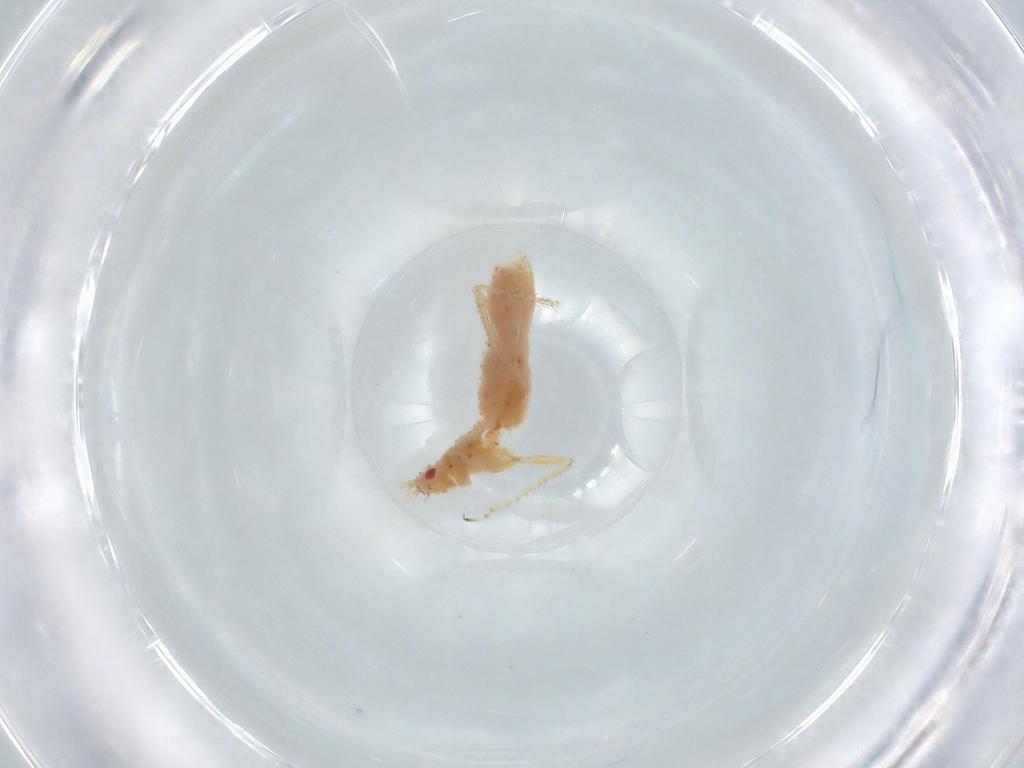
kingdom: Animalia
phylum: Arthropoda
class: Insecta
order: Hemiptera
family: Aphididae
